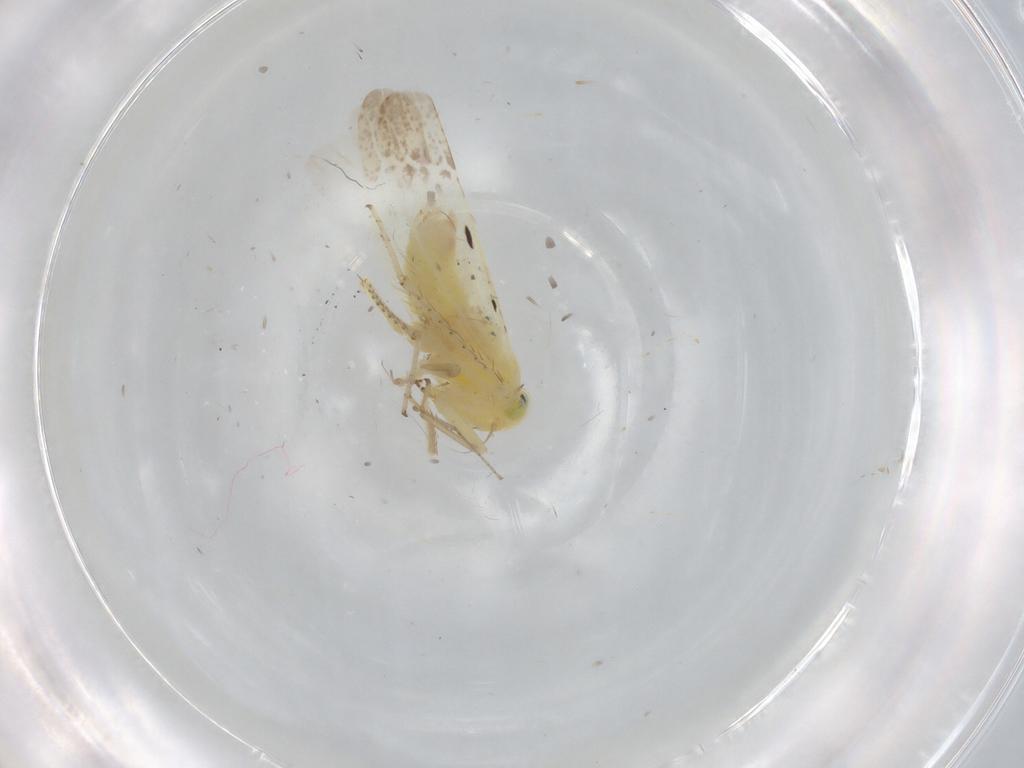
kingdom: Animalia
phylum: Arthropoda
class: Insecta
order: Hemiptera
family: Cicadellidae
